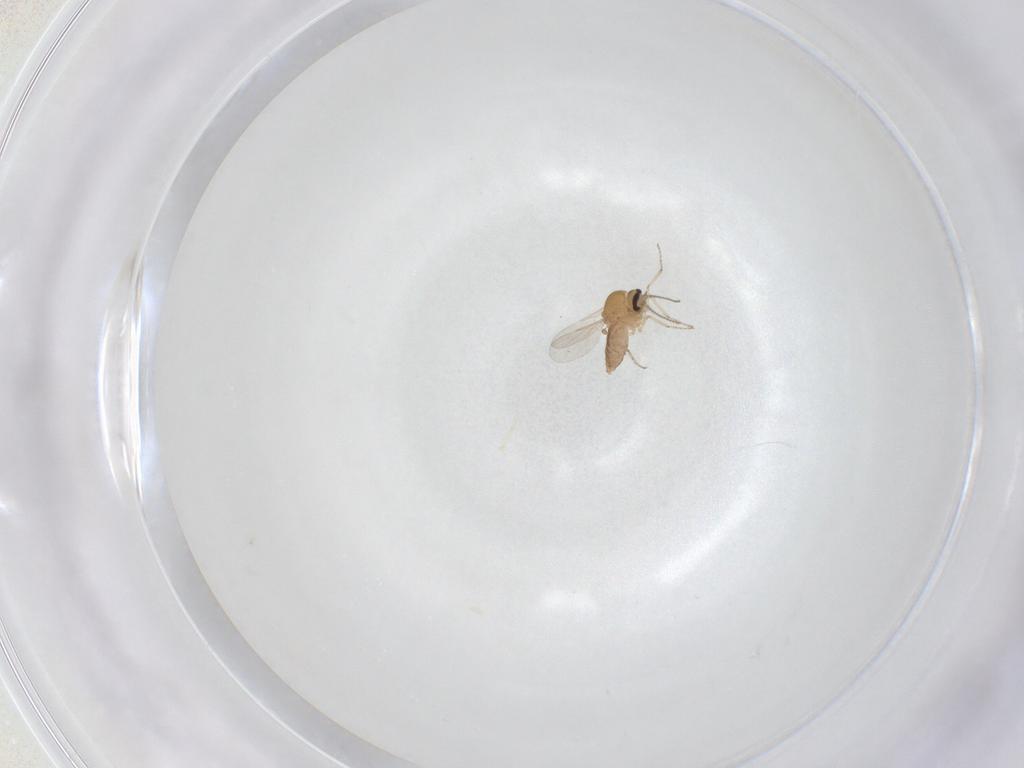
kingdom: Animalia
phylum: Arthropoda
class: Insecta
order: Diptera
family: Ceratopogonidae
